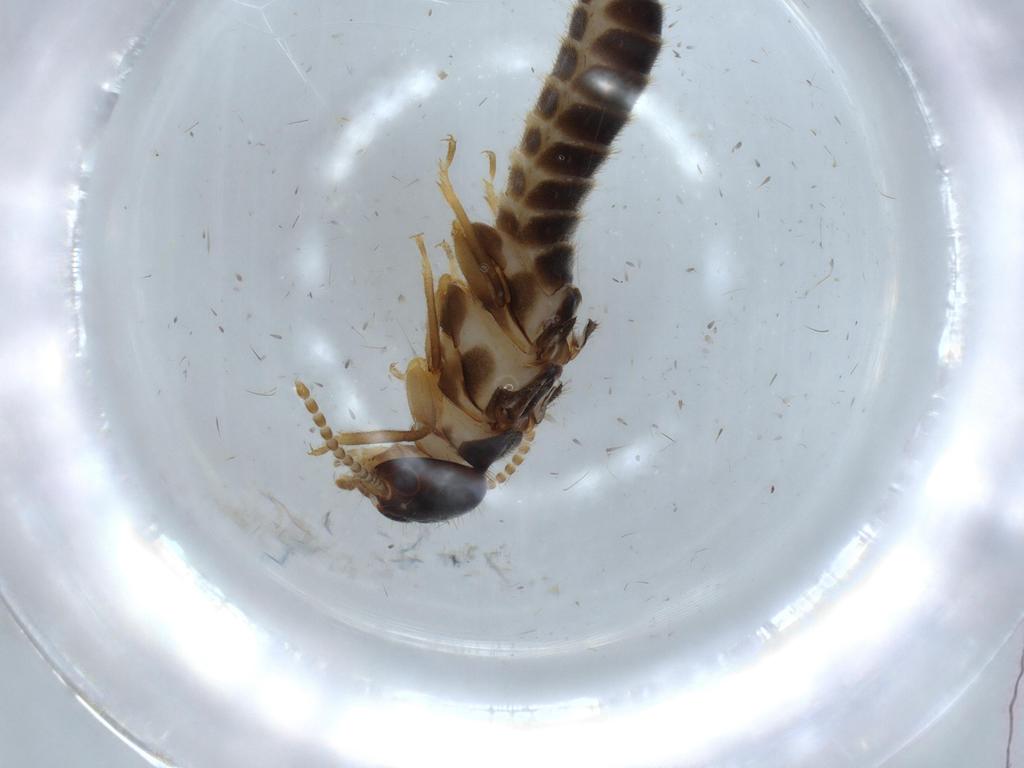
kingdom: Animalia
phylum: Arthropoda
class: Insecta
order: Blattodea
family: Termitidae
